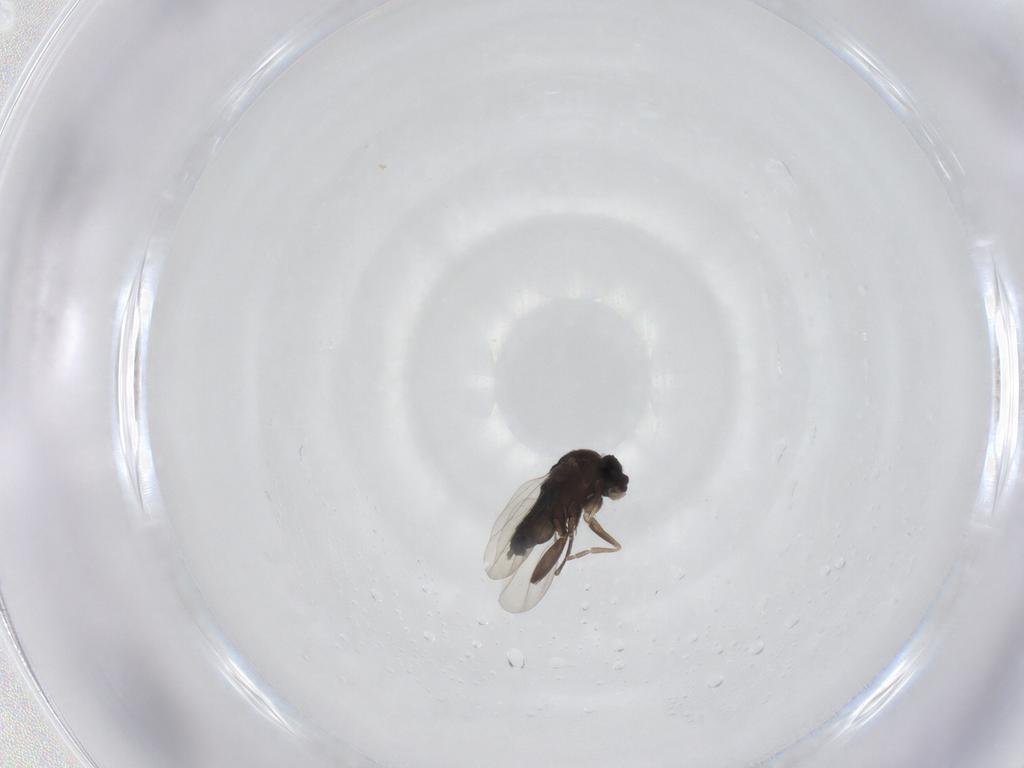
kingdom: Animalia
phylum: Arthropoda
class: Insecta
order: Diptera
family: Phoridae
